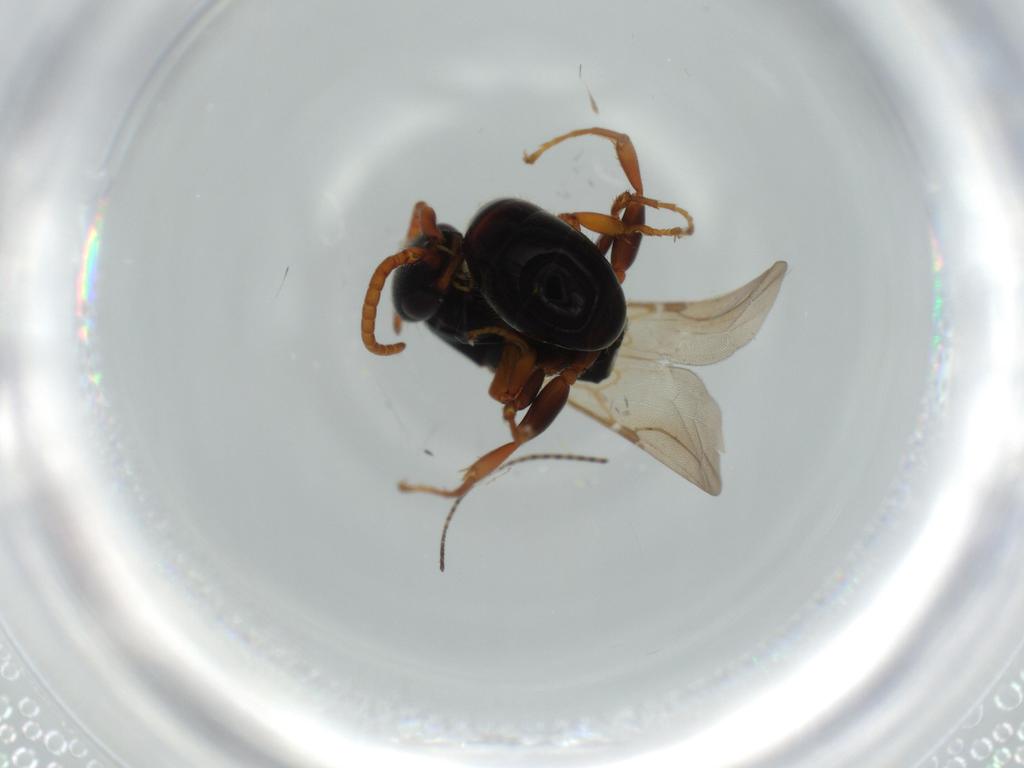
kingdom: Animalia
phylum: Arthropoda
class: Insecta
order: Hymenoptera
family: Bethylidae
